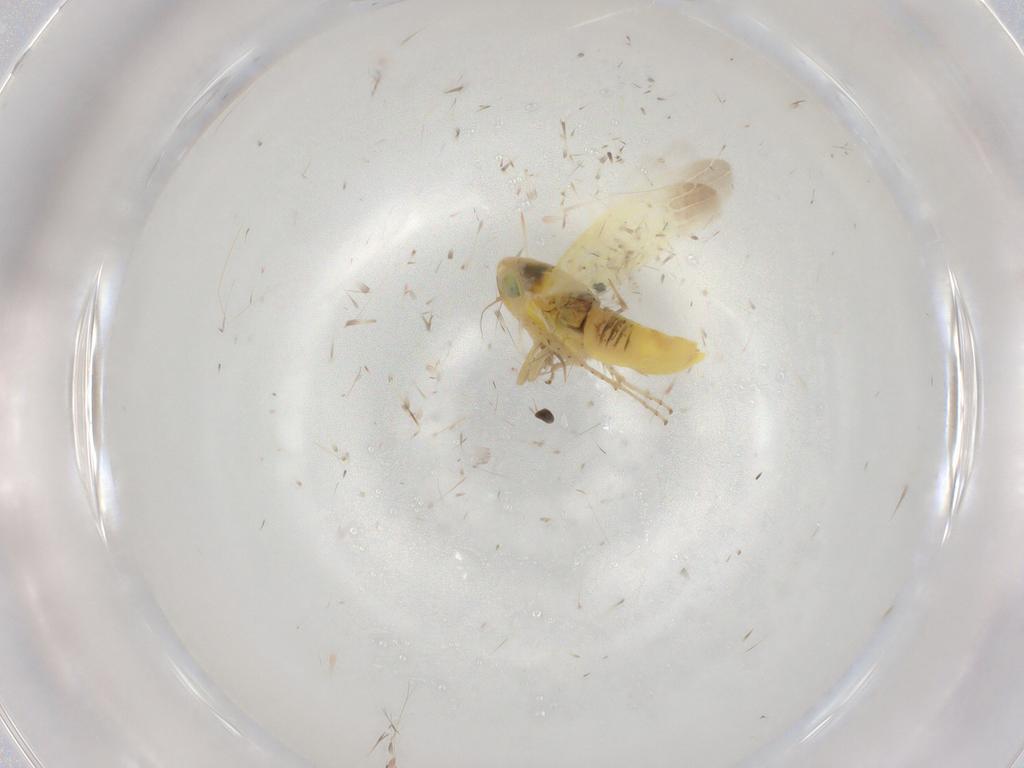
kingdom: Animalia
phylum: Arthropoda
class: Insecta
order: Hemiptera
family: Cicadellidae
